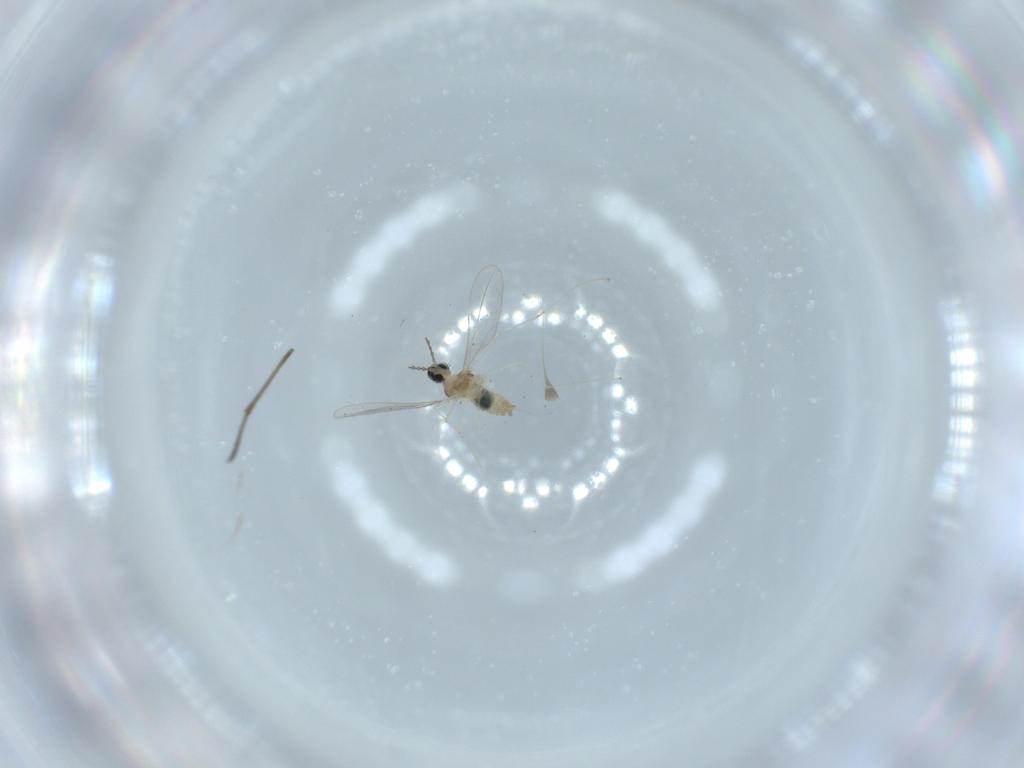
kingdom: Animalia
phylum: Arthropoda
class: Insecta
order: Diptera
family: Cecidomyiidae
